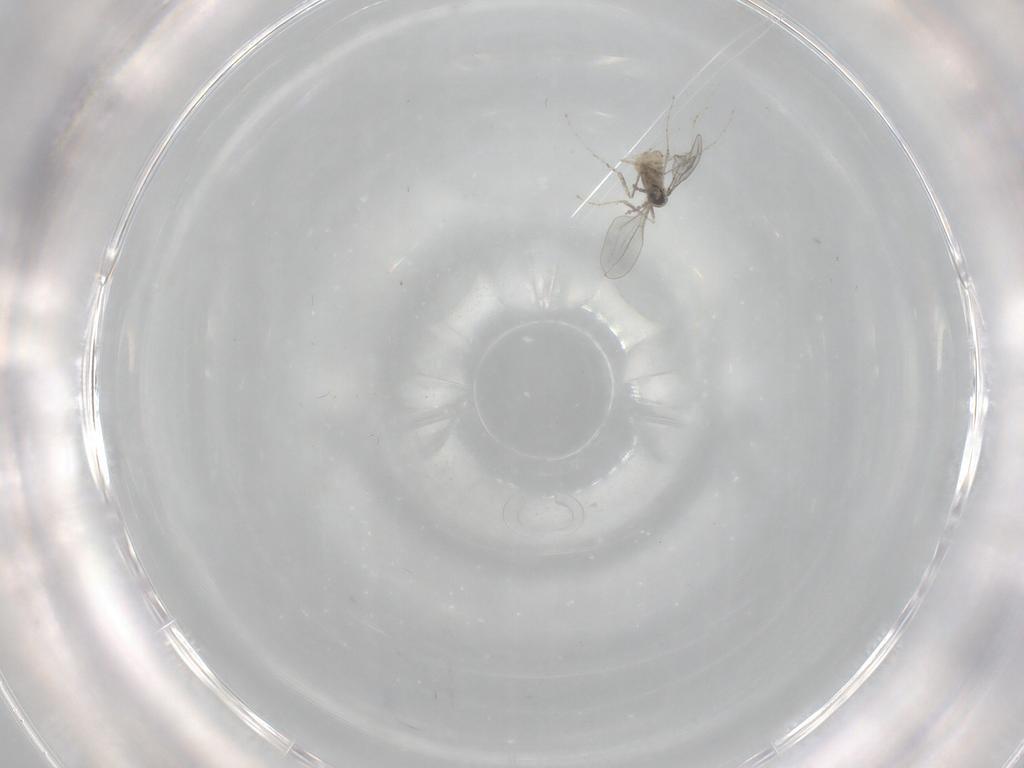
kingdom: Animalia
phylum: Arthropoda
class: Insecta
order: Diptera
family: Cecidomyiidae
